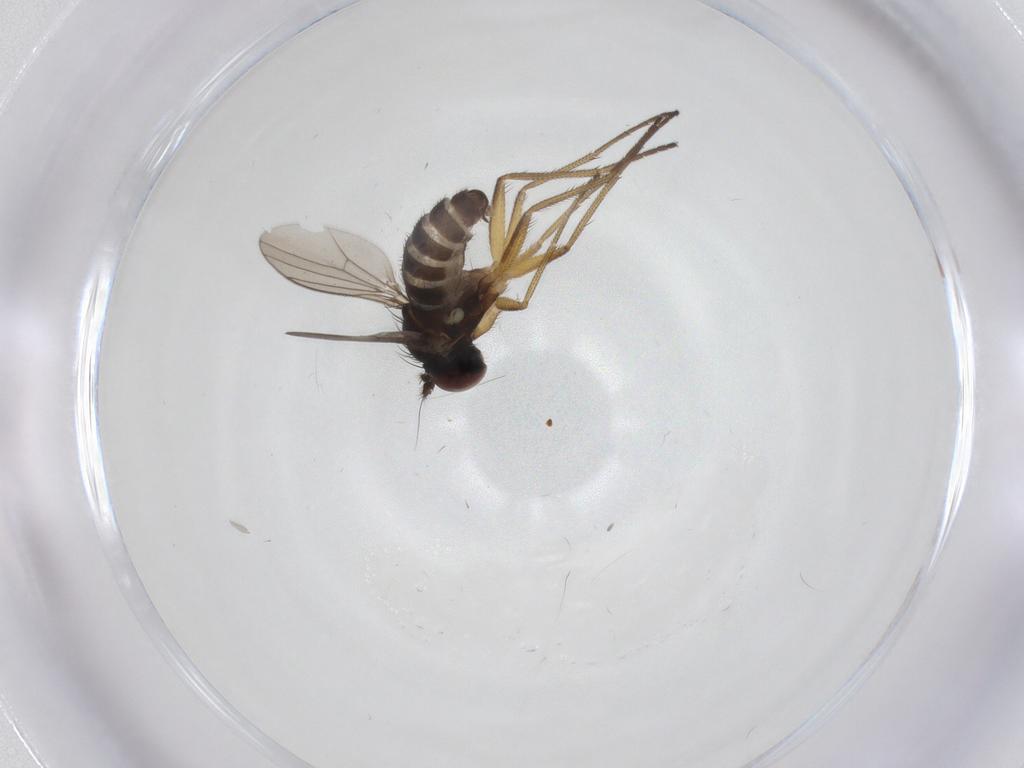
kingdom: Animalia
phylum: Arthropoda
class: Insecta
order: Diptera
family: Dolichopodidae
